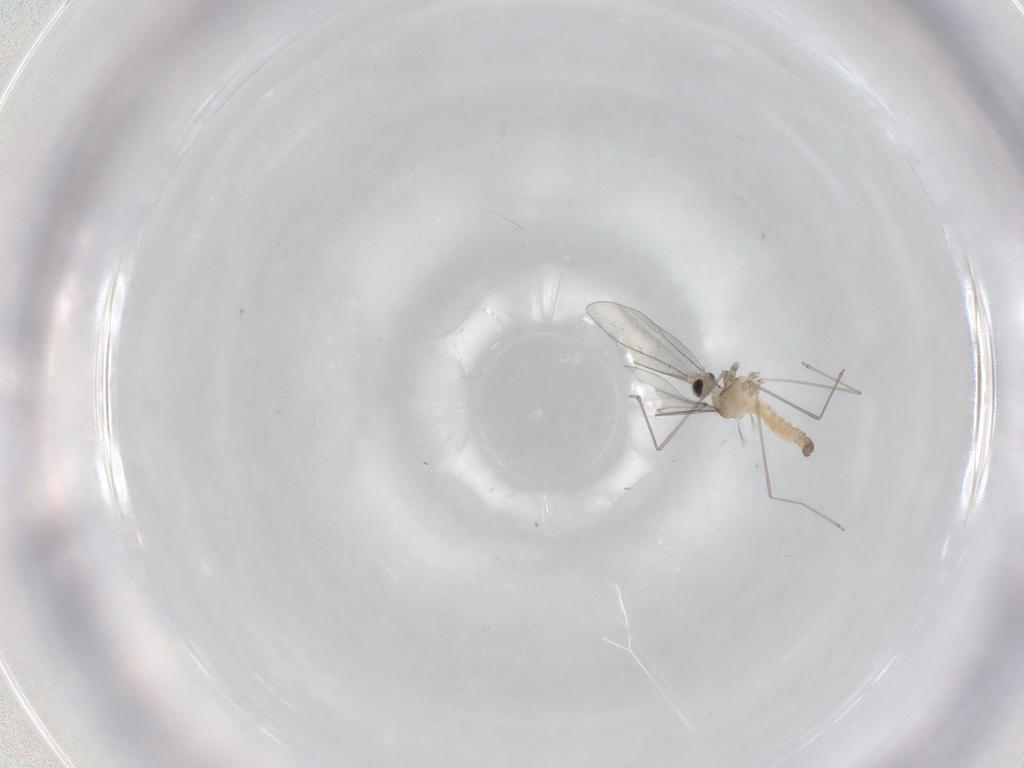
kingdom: Animalia
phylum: Arthropoda
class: Insecta
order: Diptera
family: Cecidomyiidae
